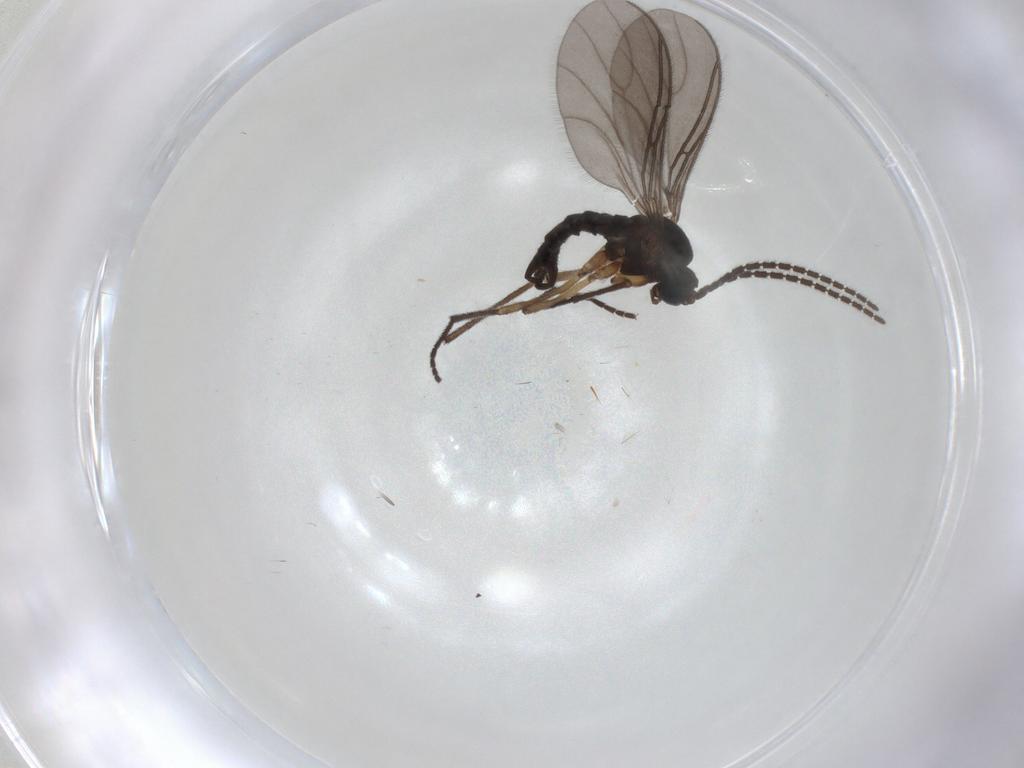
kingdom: Animalia
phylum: Arthropoda
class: Insecta
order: Diptera
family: Sciaridae
